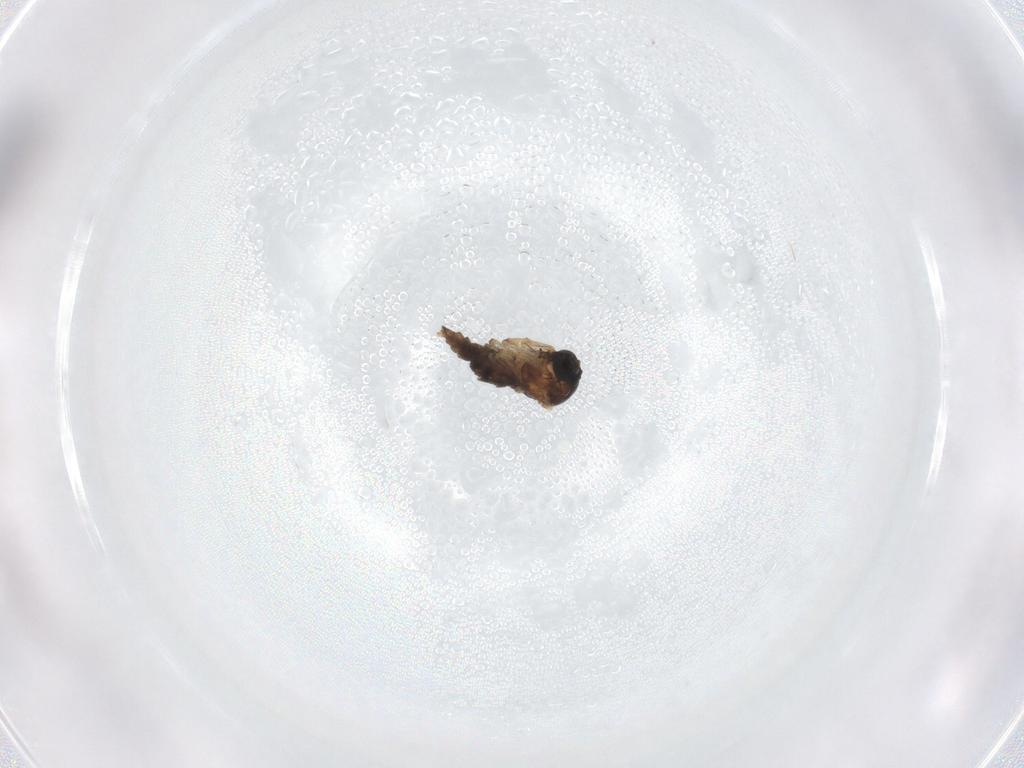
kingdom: Animalia
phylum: Arthropoda
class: Insecta
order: Diptera
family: Sciaridae
